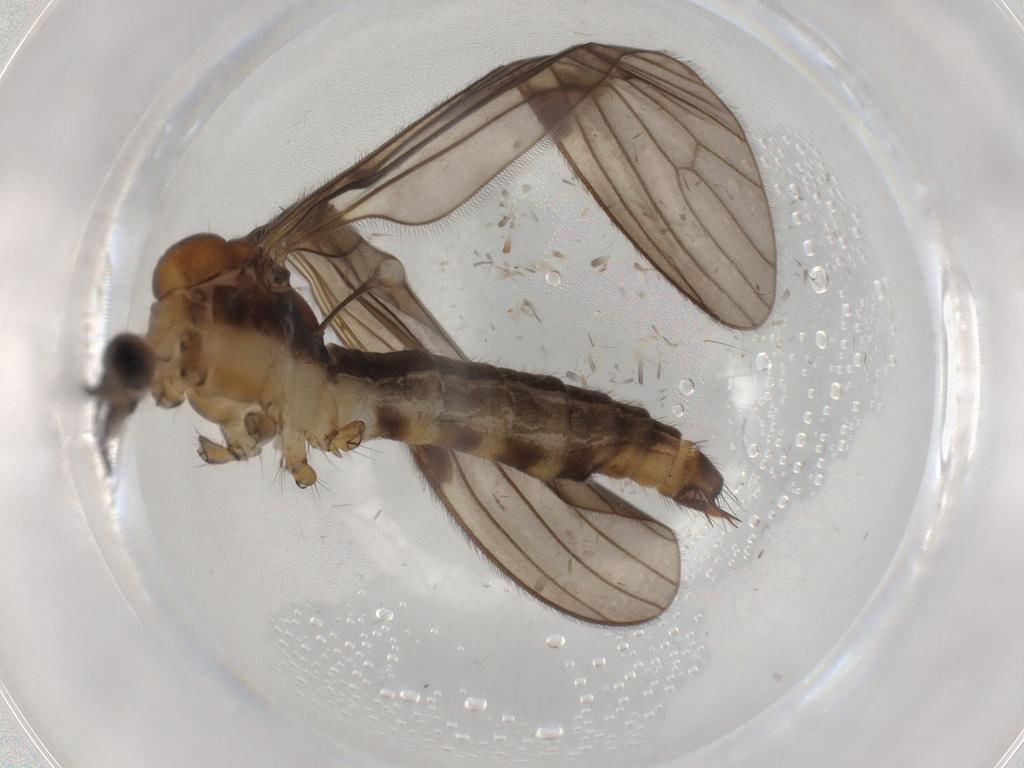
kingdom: Animalia
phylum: Arthropoda
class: Insecta
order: Diptera
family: Limoniidae
